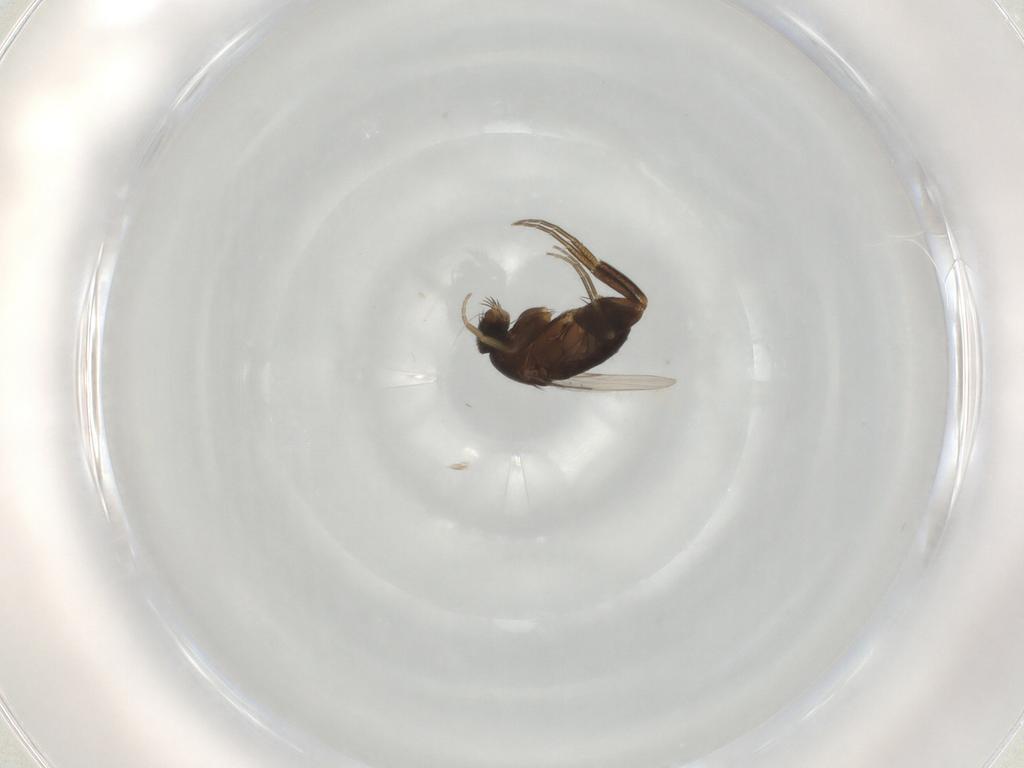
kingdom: Animalia
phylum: Arthropoda
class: Insecta
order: Diptera
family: Phoridae
